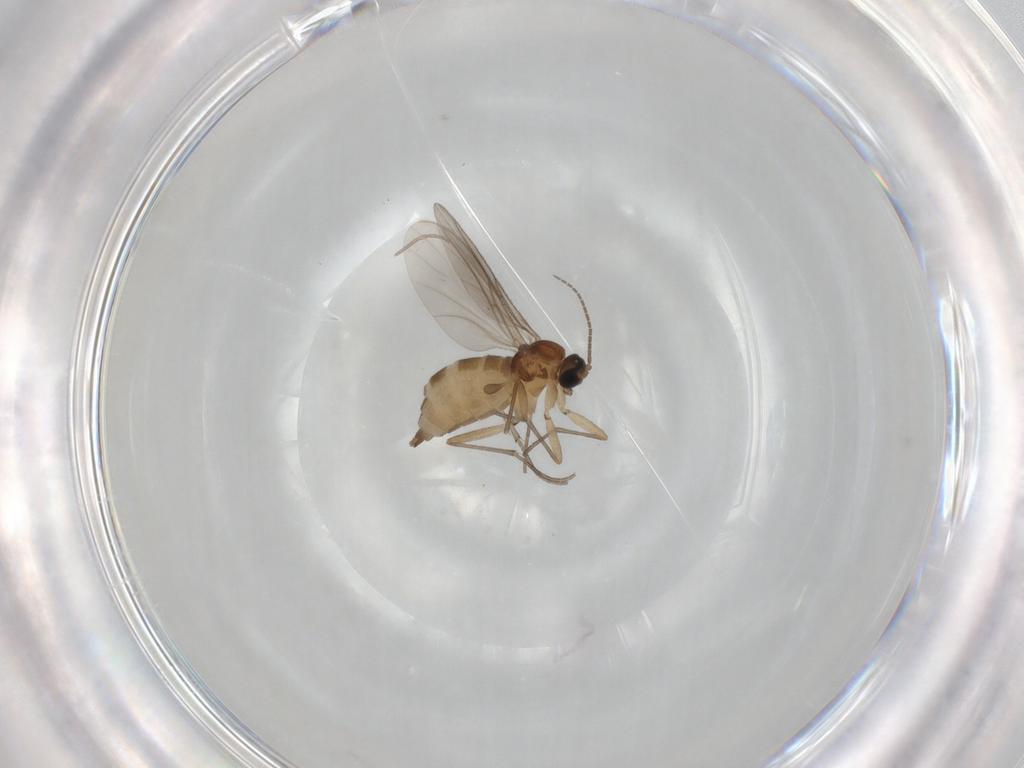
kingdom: Animalia
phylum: Arthropoda
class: Insecta
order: Diptera
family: Sciaridae
